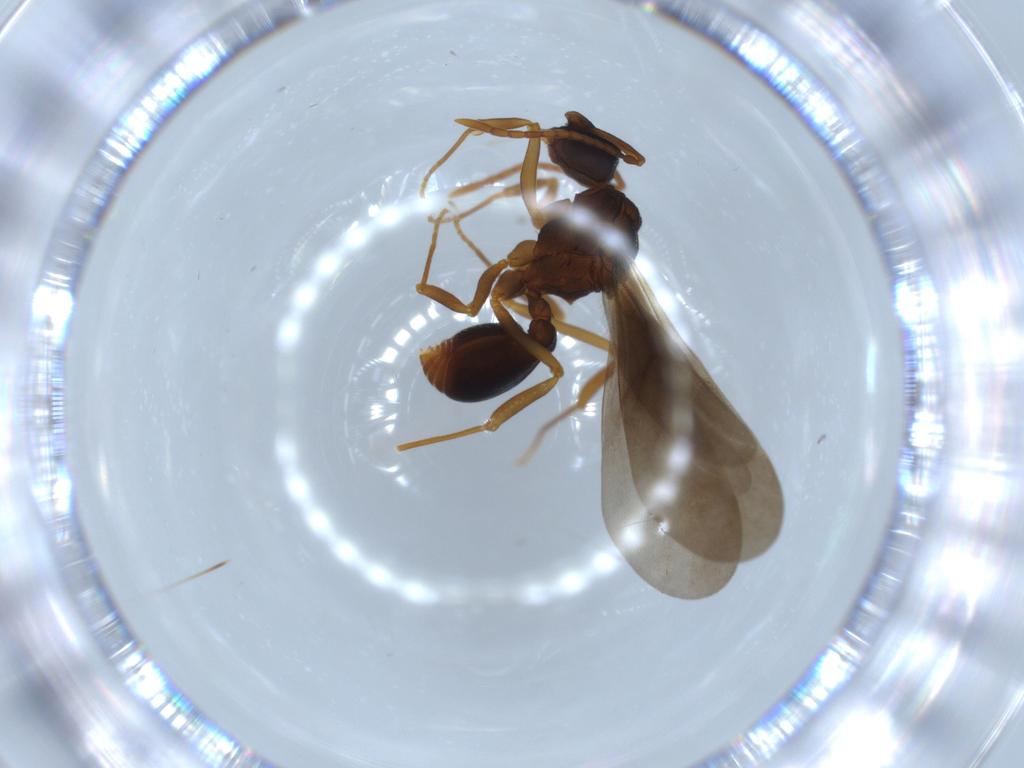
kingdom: Animalia
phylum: Arthropoda
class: Insecta
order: Hymenoptera
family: Formicidae
